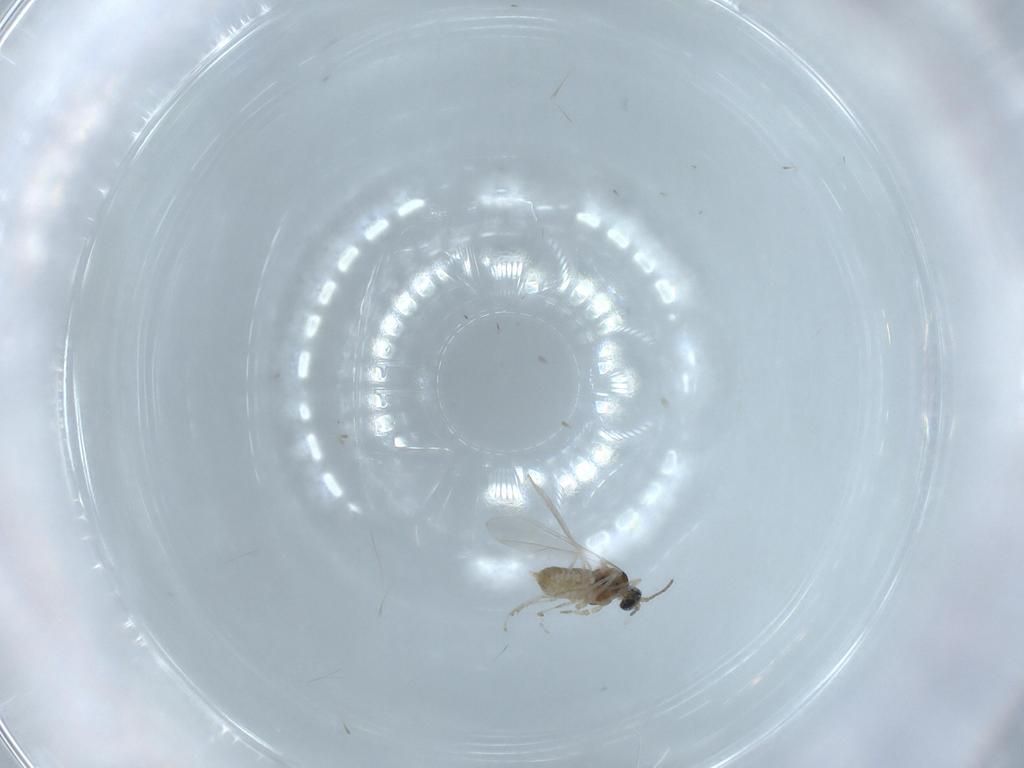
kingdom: Animalia
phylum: Arthropoda
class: Insecta
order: Diptera
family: Cecidomyiidae
